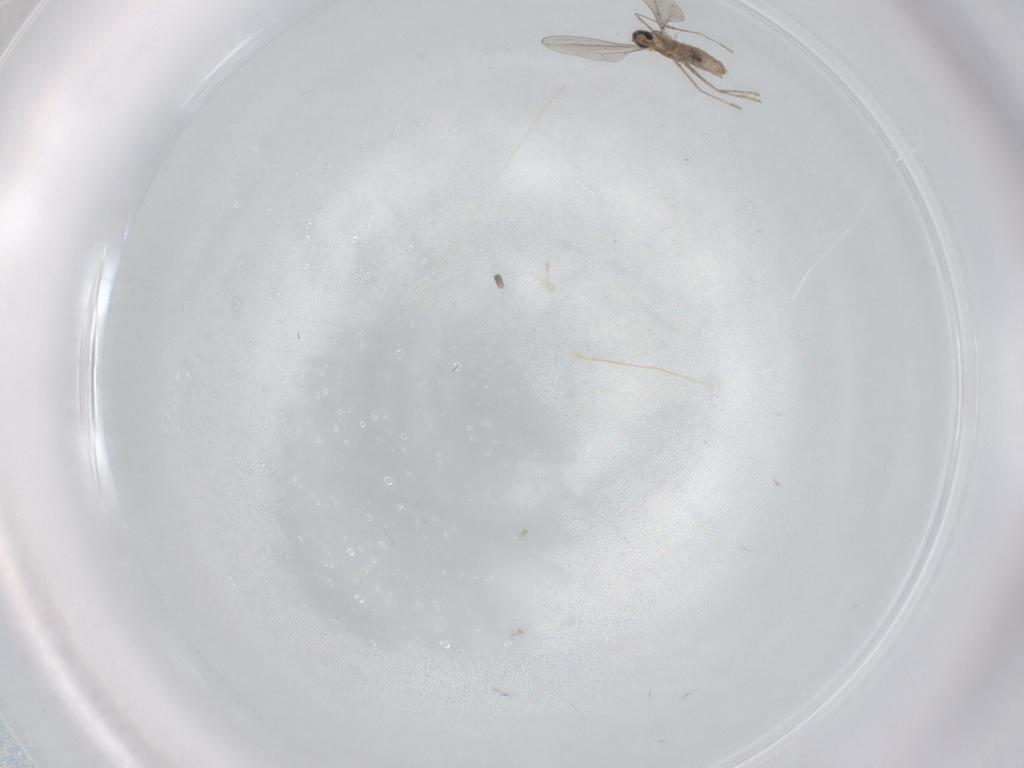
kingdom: Animalia
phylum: Arthropoda
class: Insecta
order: Diptera
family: Cecidomyiidae
